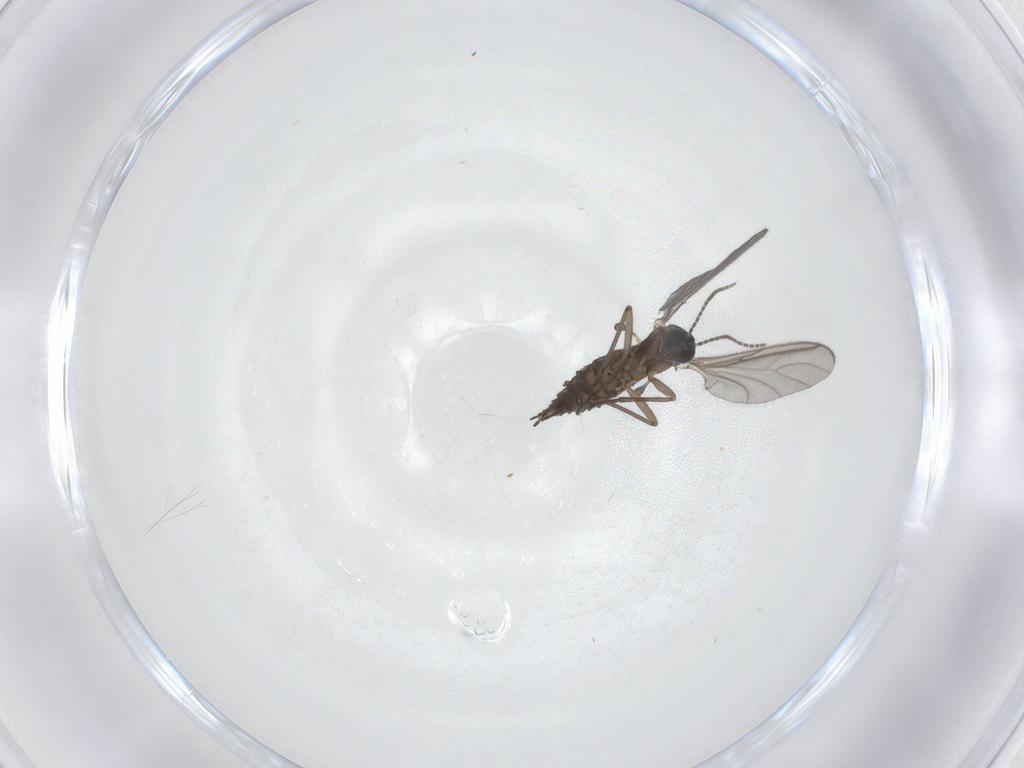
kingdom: Animalia
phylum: Arthropoda
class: Insecta
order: Diptera
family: Sciaridae
